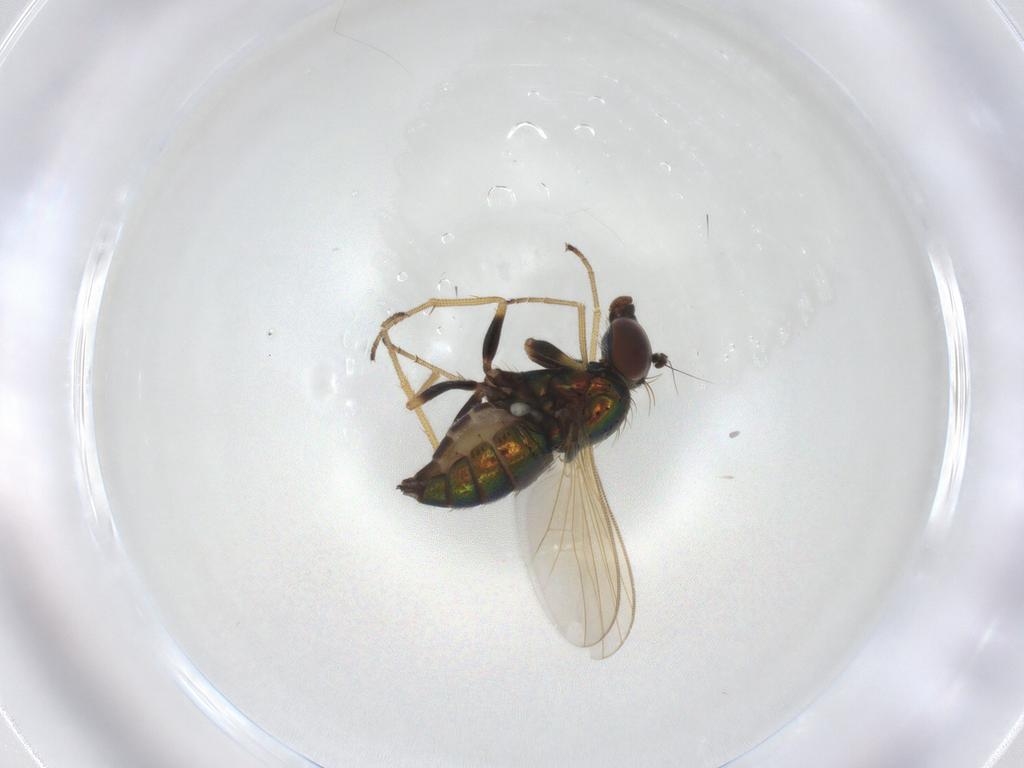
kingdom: Animalia
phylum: Arthropoda
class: Insecta
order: Diptera
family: Dolichopodidae
